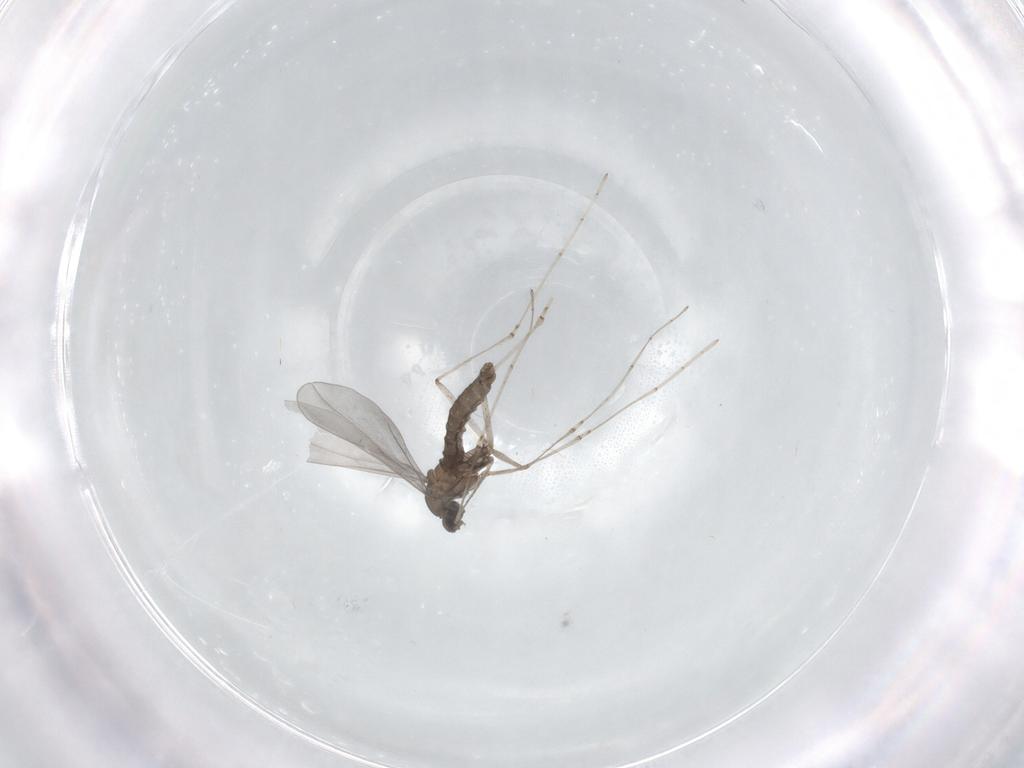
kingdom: Animalia
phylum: Arthropoda
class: Insecta
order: Diptera
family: Cecidomyiidae
